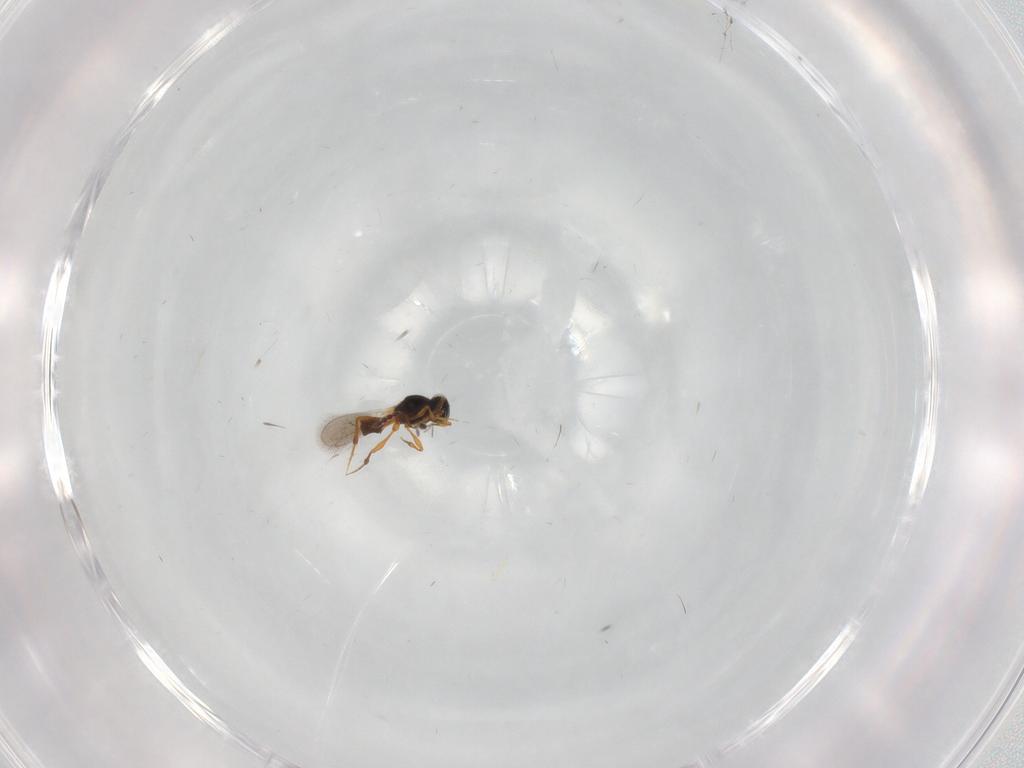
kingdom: Animalia
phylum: Arthropoda
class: Insecta
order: Hymenoptera
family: Platygastridae
